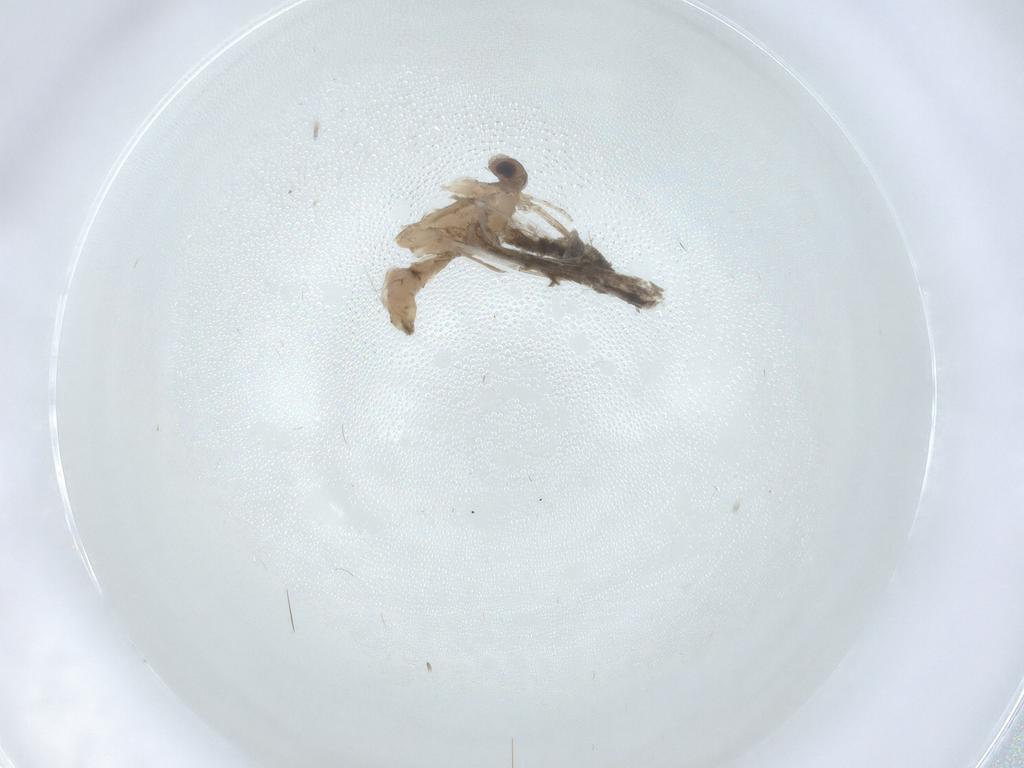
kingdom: Animalia
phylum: Arthropoda
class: Insecta
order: Lepidoptera
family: Tineidae
